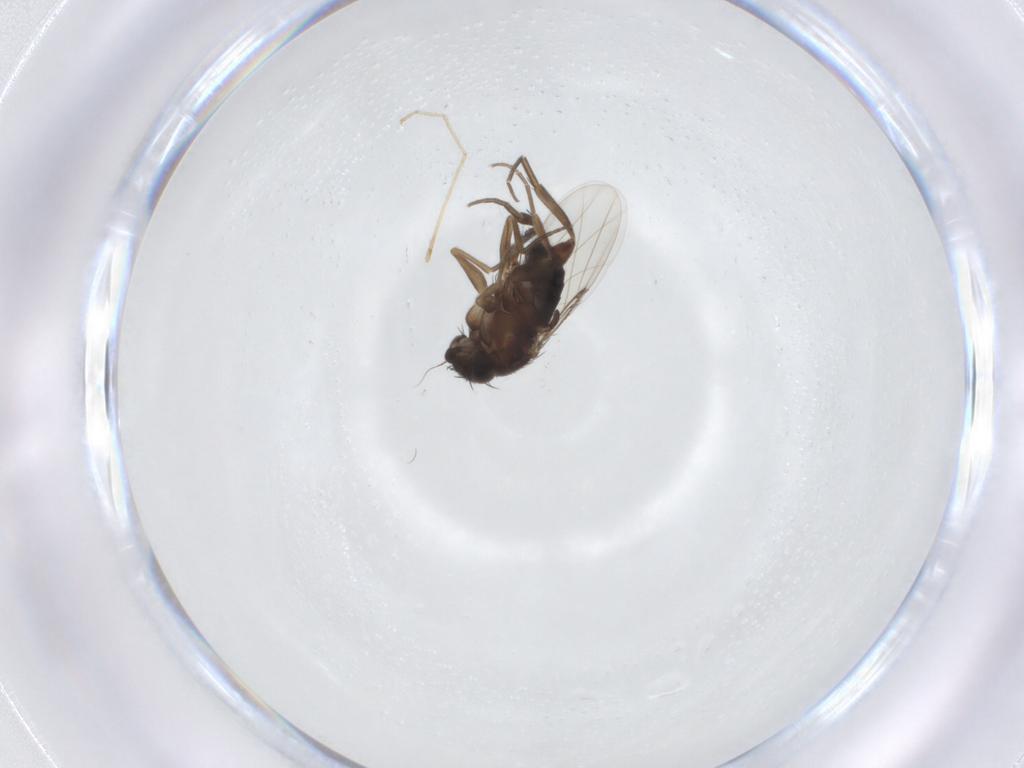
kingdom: Animalia
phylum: Arthropoda
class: Insecta
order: Diptera
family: Phoridae
